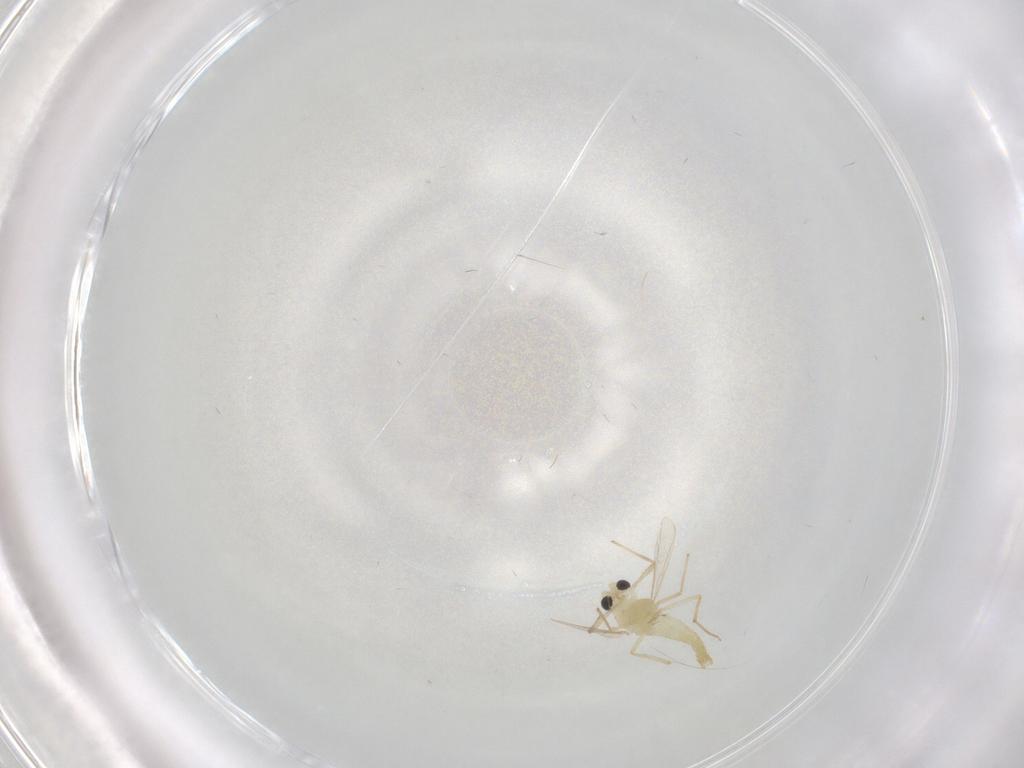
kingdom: Animalia
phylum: Arthropoda
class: Insecta
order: Diptera
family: Chironomidae
